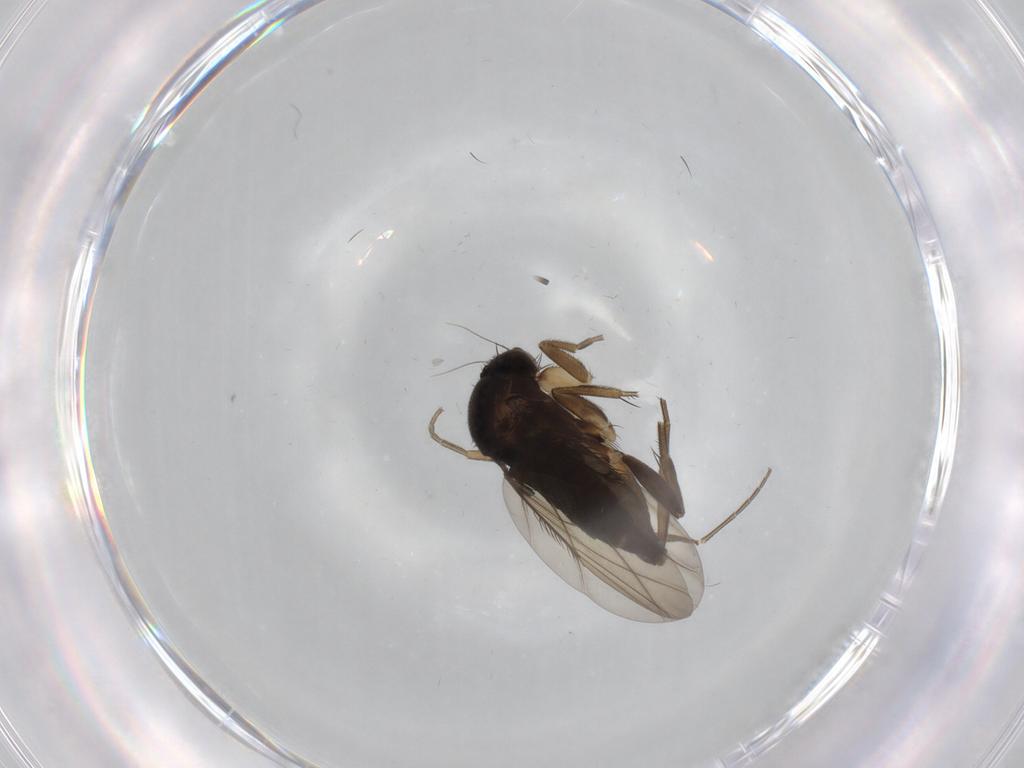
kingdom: Animalia
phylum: Arthropoda
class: Insecta
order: Diptera
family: Phoridae
